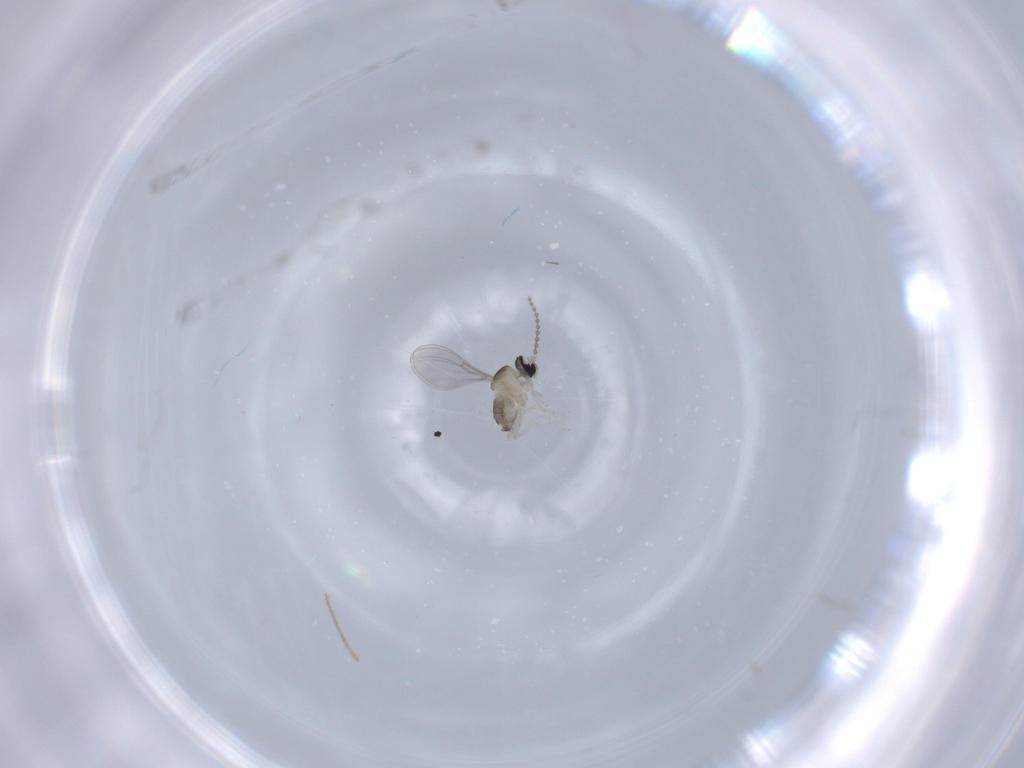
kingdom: Animalia
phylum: Arthropoda
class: Insecta
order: Diptera
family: Cecidomyiidae
